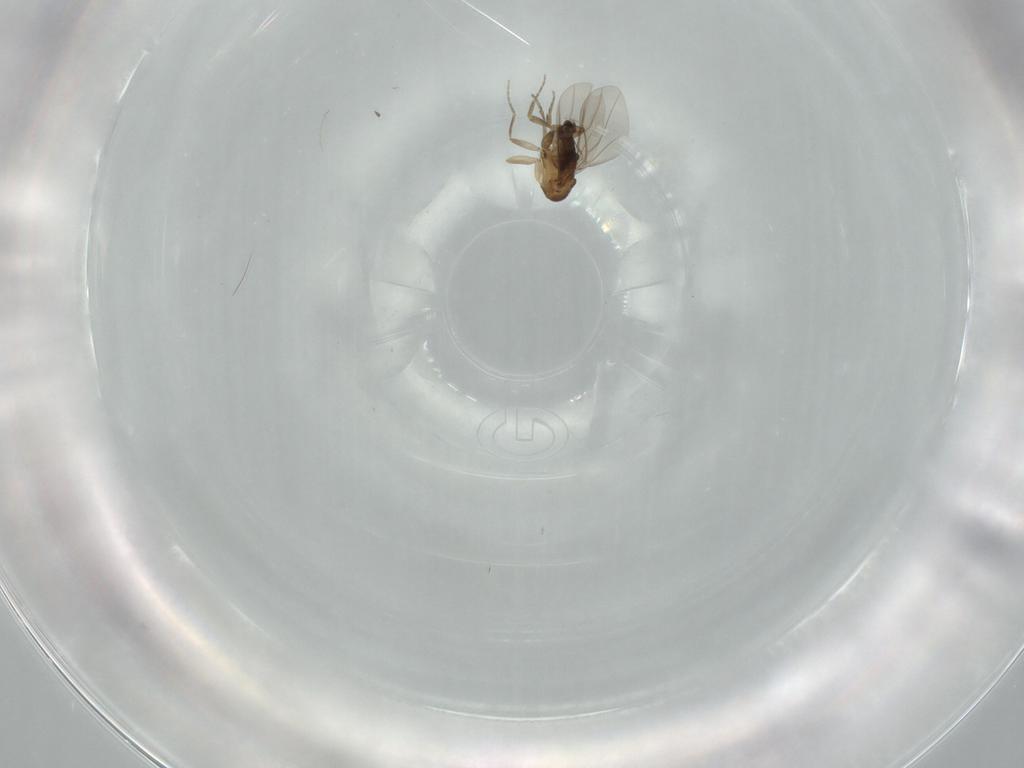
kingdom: Animalia
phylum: Arthropoda
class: Insecta
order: Diptera
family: Phoridae
